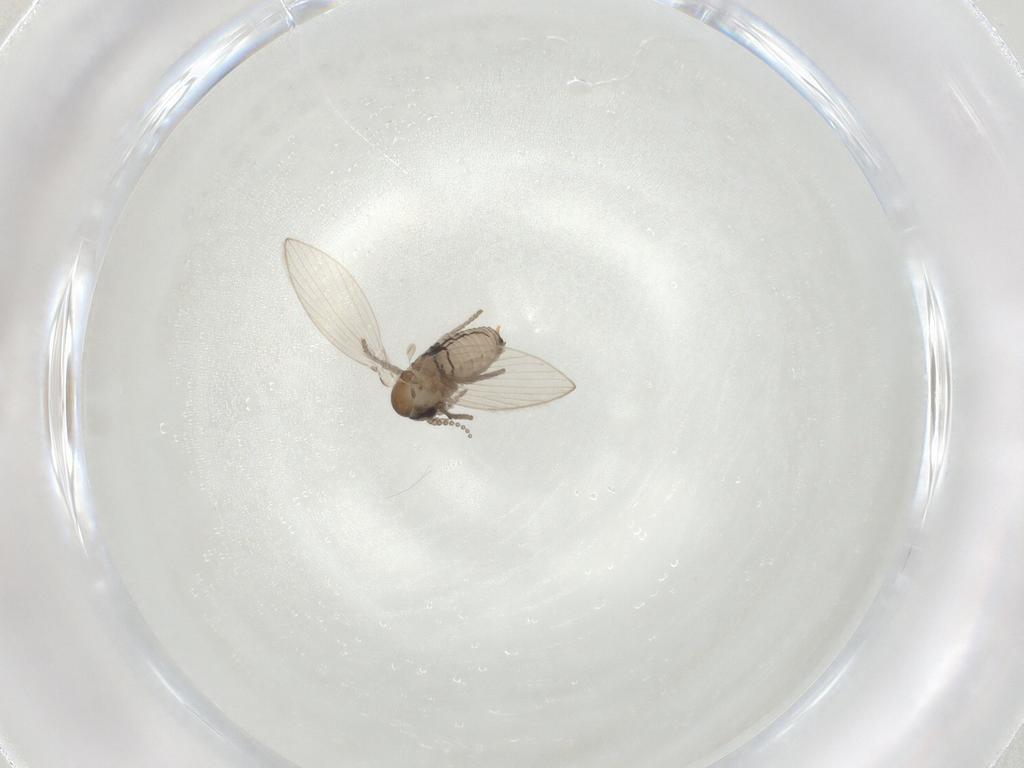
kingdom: Animalia
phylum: Arthropoda
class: Insecta
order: Diptera
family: Psychodidae
